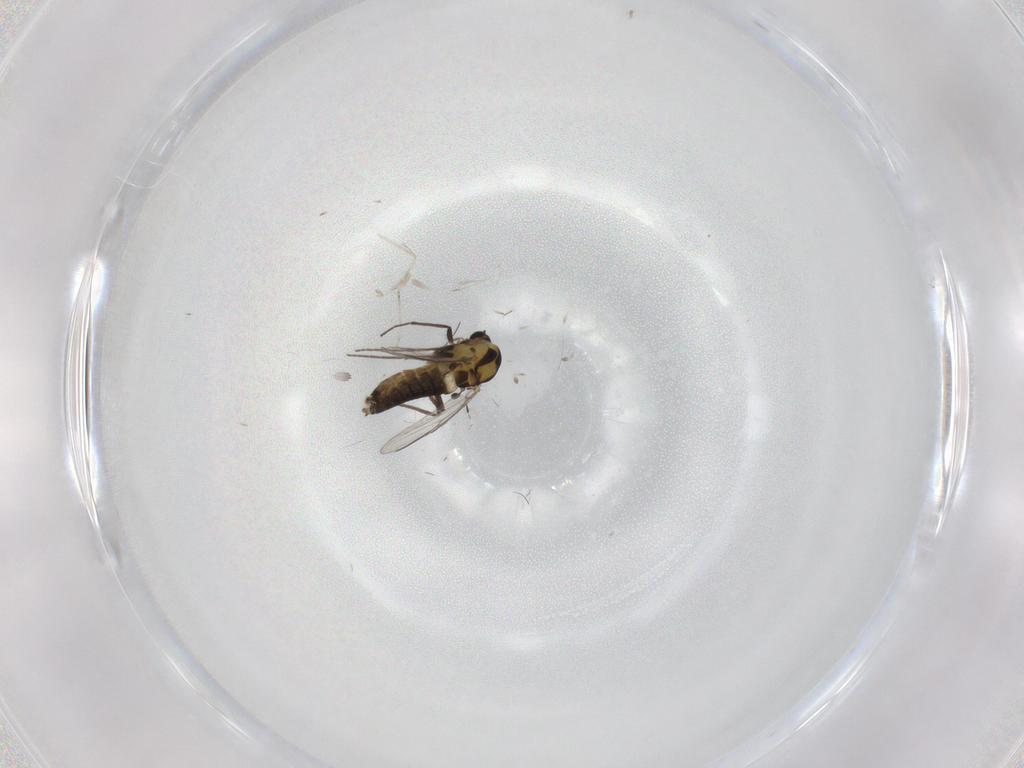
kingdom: Animalia
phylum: Arthropoda
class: Insecta
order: Diptera
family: Chironomidae
